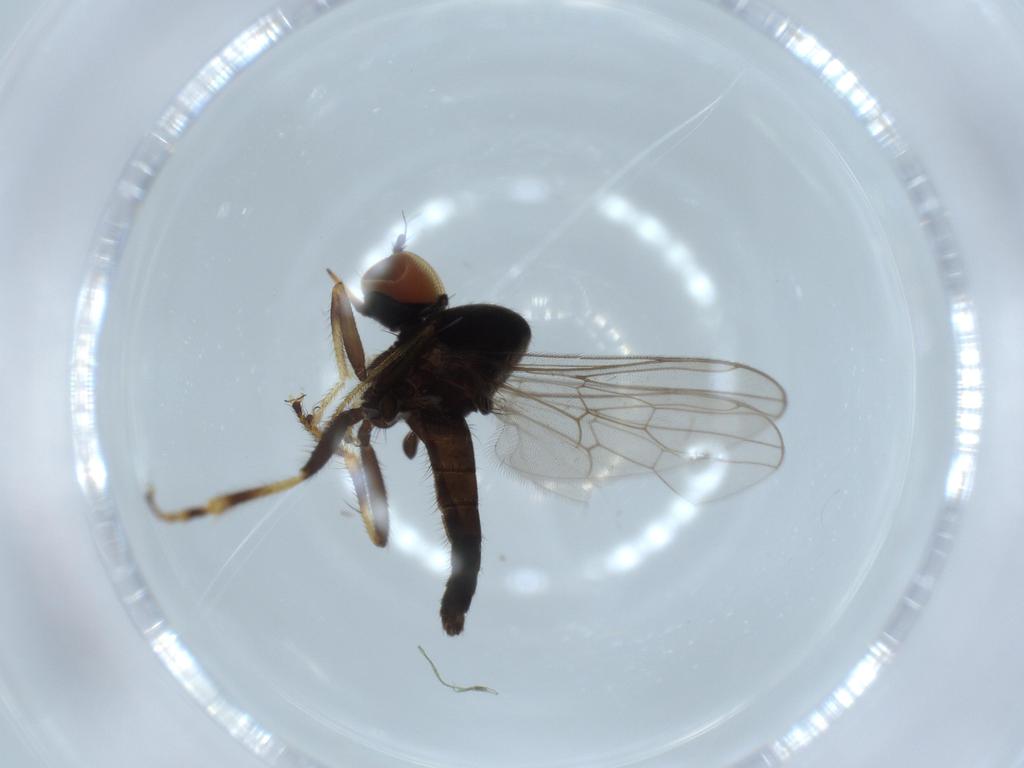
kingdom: Animalia
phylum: Arthropoda
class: Insecta
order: Diptera
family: Hybotidae
